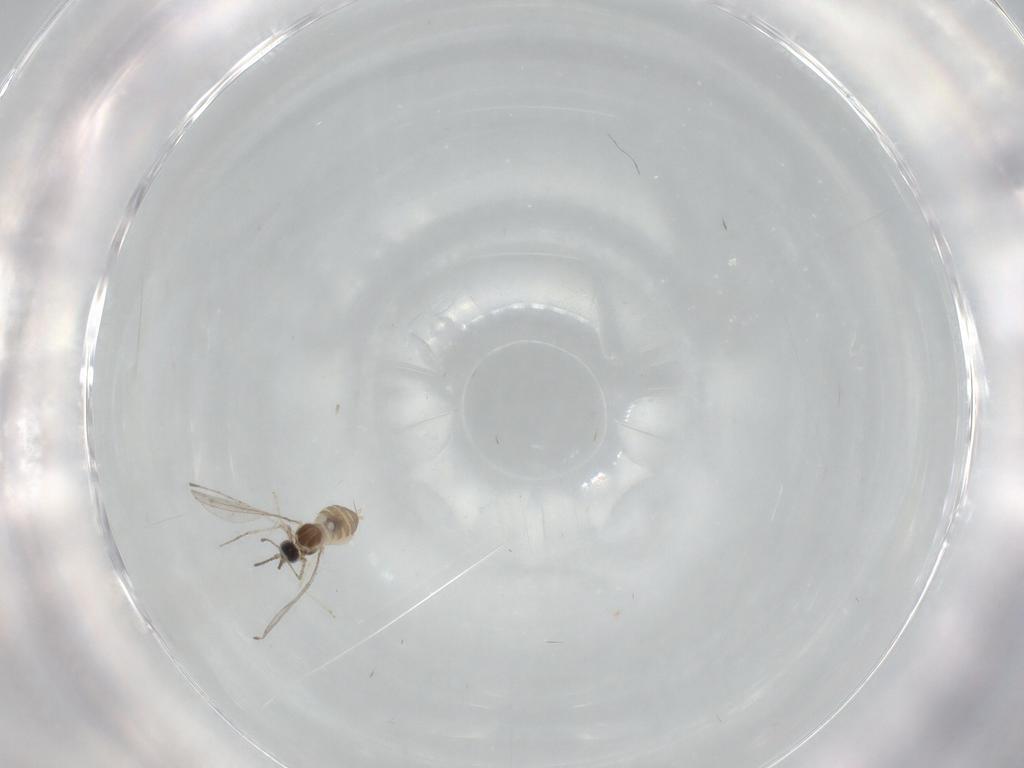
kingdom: Animalia
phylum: Arthropoda
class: Insecta
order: Diptera
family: Cecidomyiidae
